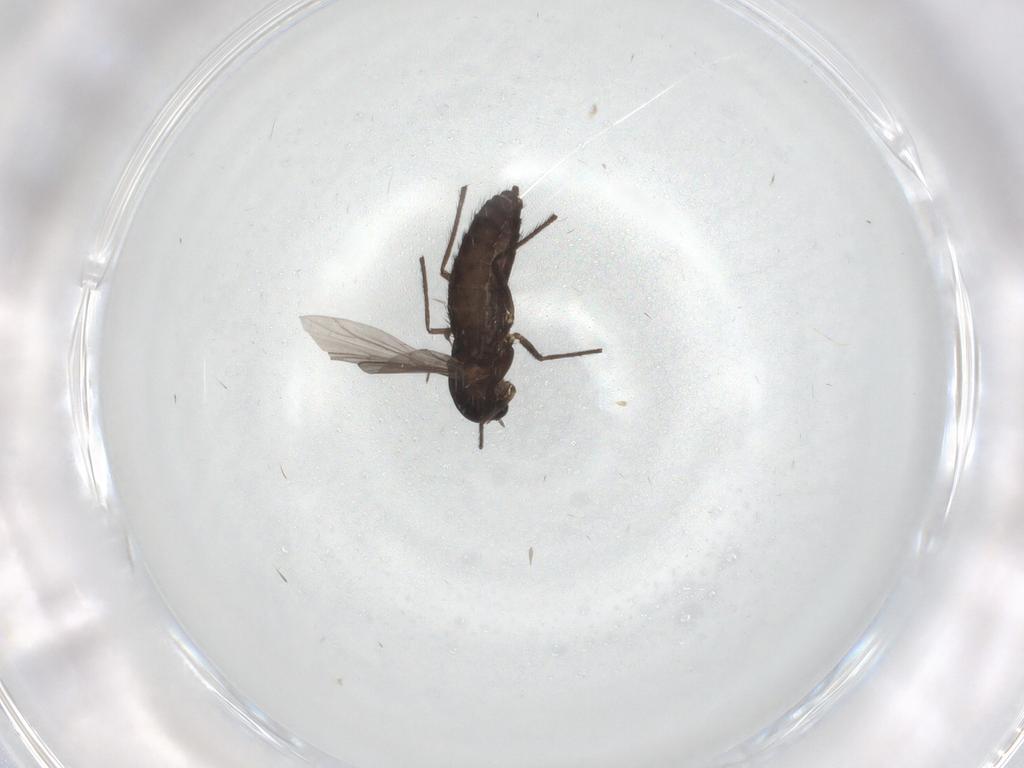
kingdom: Animalia
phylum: Arthropoda
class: Insecta
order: Diptera
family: Chironomidae
